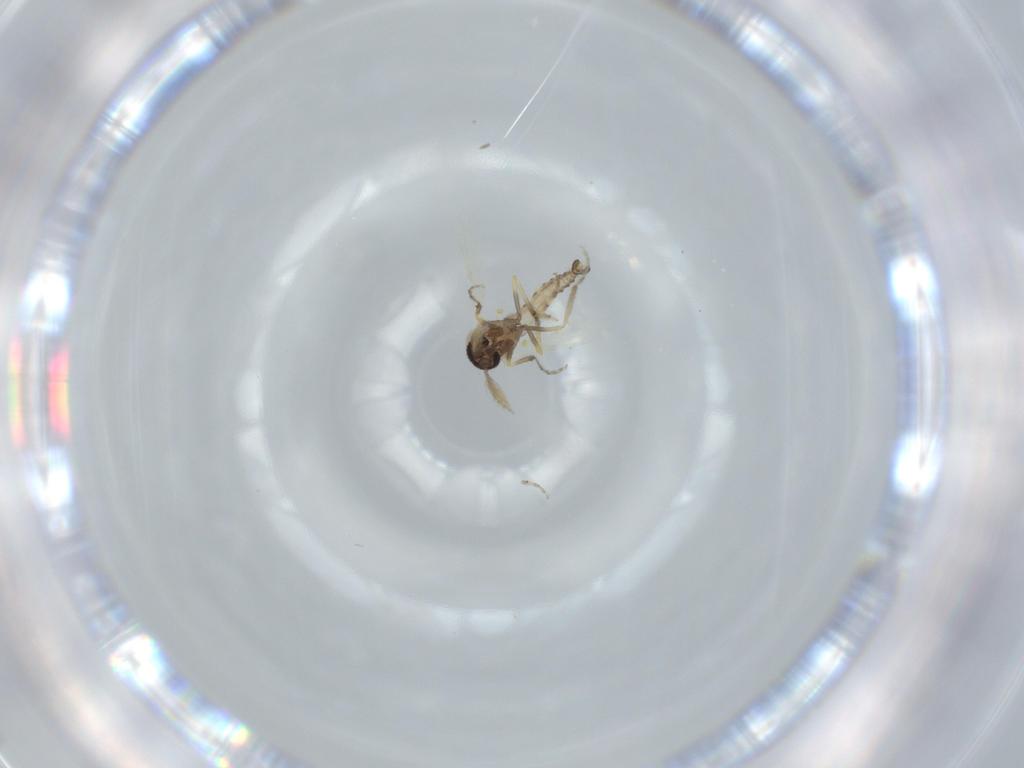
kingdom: Animalia
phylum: Arthropoda
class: Insecta
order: Diptera
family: Ceratopogonidae
